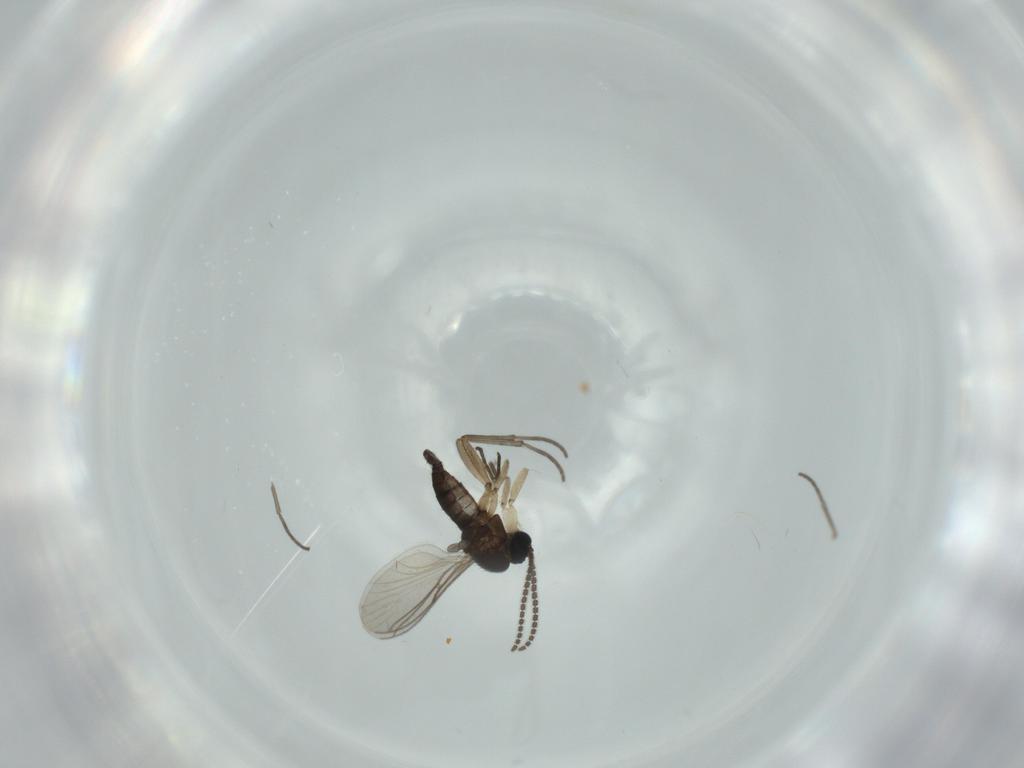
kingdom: Animalia
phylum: Arthropoda
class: Insecta
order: Diptera
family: Sciaridae
